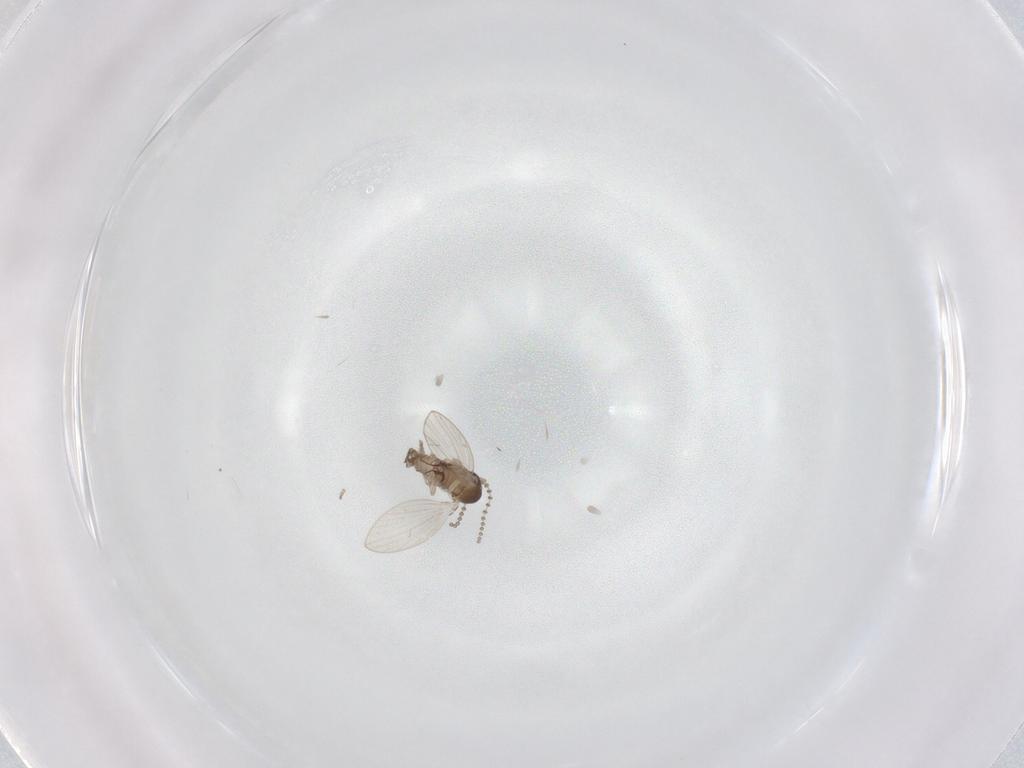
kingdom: Animalia
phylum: Arthropoda
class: Insecta
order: Diptera
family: Psychodidae
